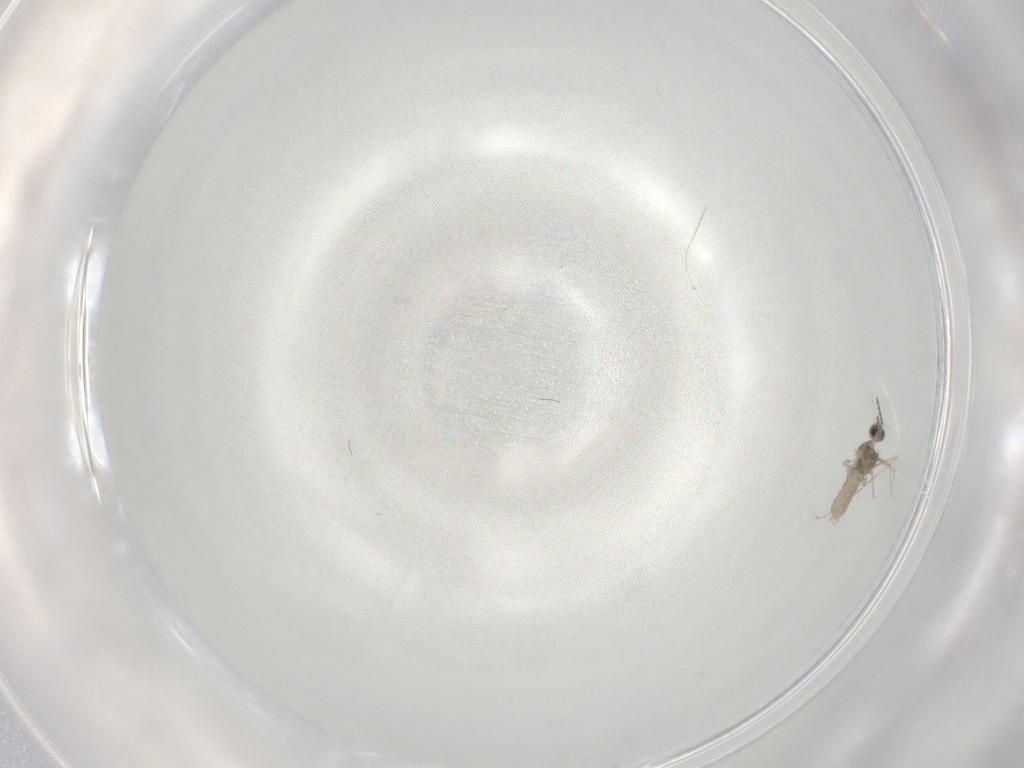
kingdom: Animalia
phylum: Arthropoda
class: Insecta
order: Diptera
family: Cecidomyiidae
